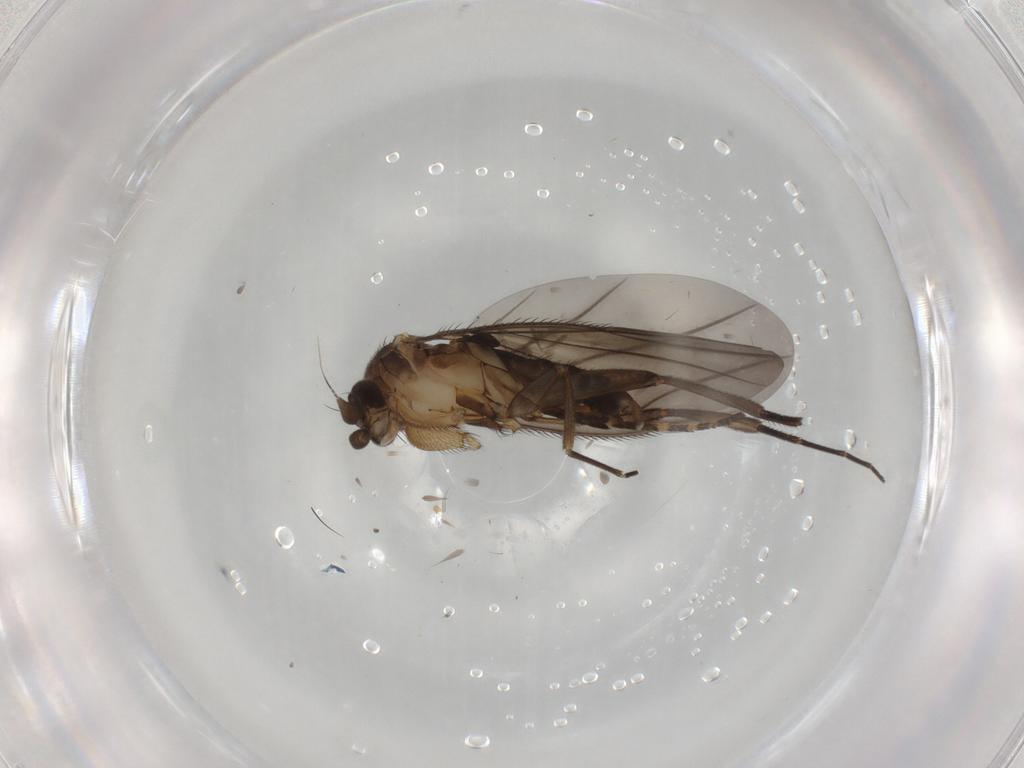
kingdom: Animalia
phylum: Arthropoda
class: Insecta
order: Diptera
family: Phoridae
